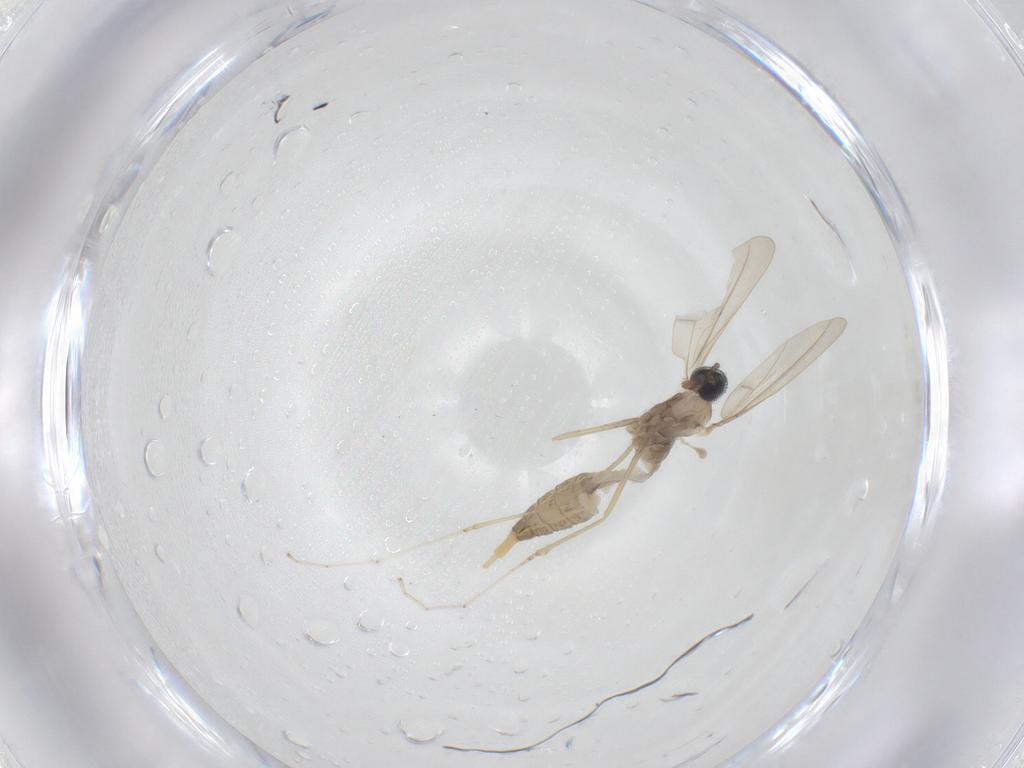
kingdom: Animalia
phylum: Arthropoda
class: Insecta
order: Diptera
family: Cecidomyiidae
